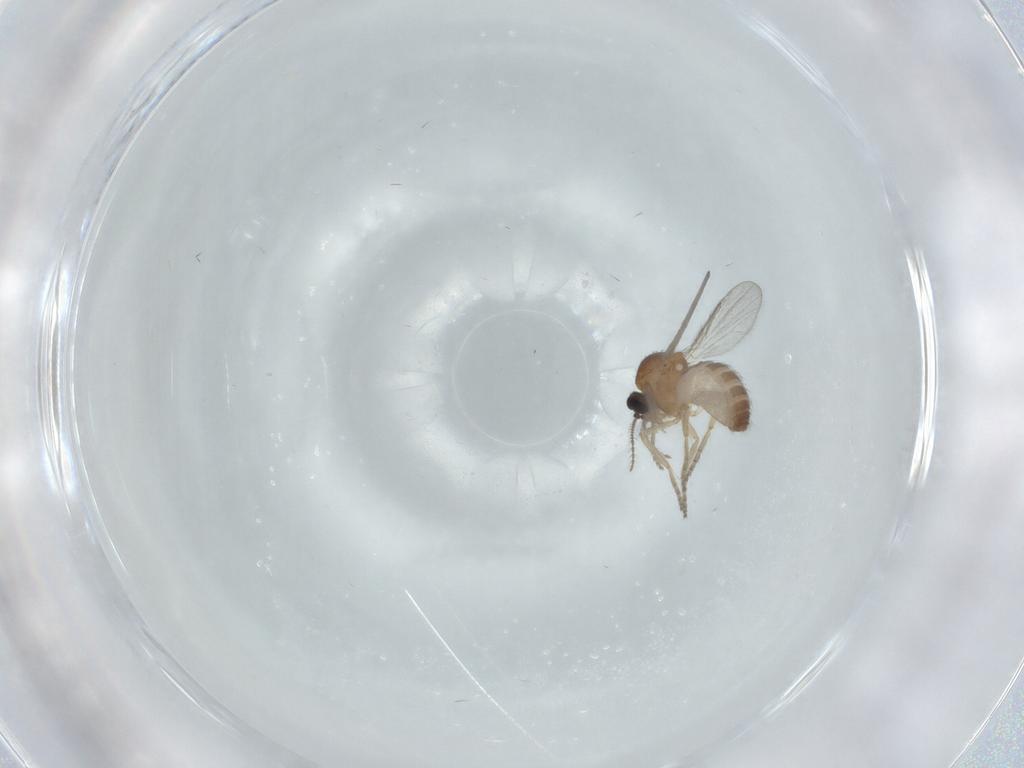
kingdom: Animalia
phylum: Arthropoda
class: Insecta
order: Diptera
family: Ceratopogonidae
